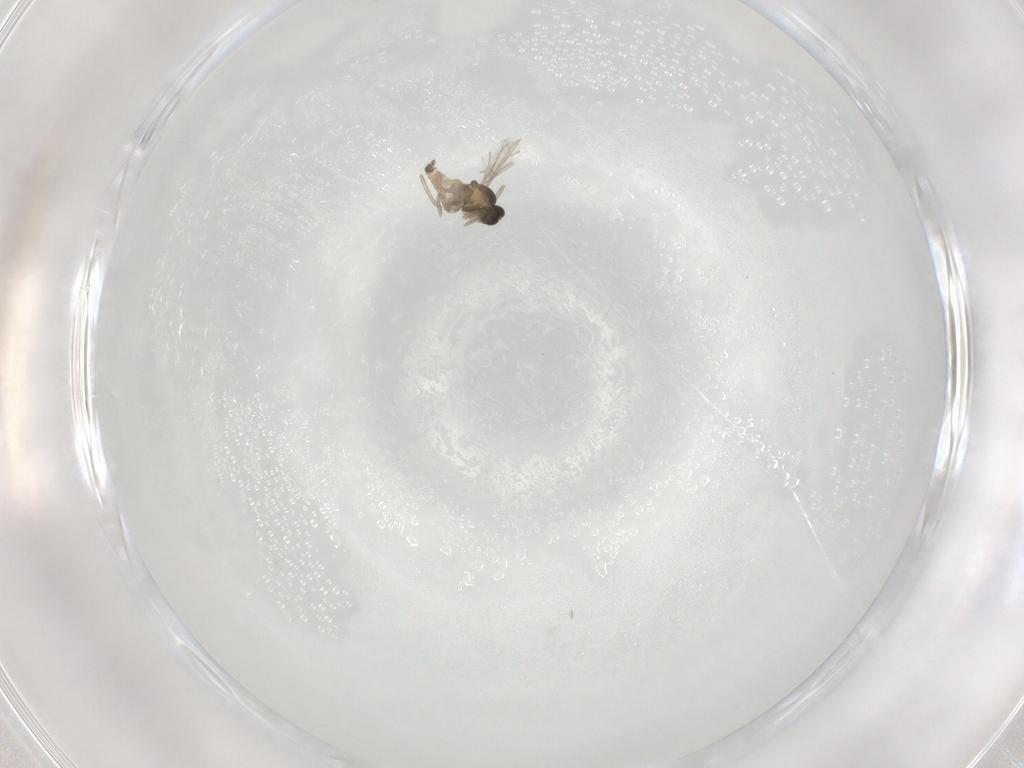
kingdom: Animalia
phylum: Arthropoda
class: Insecta
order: Diptera
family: Cecidomyiidae
